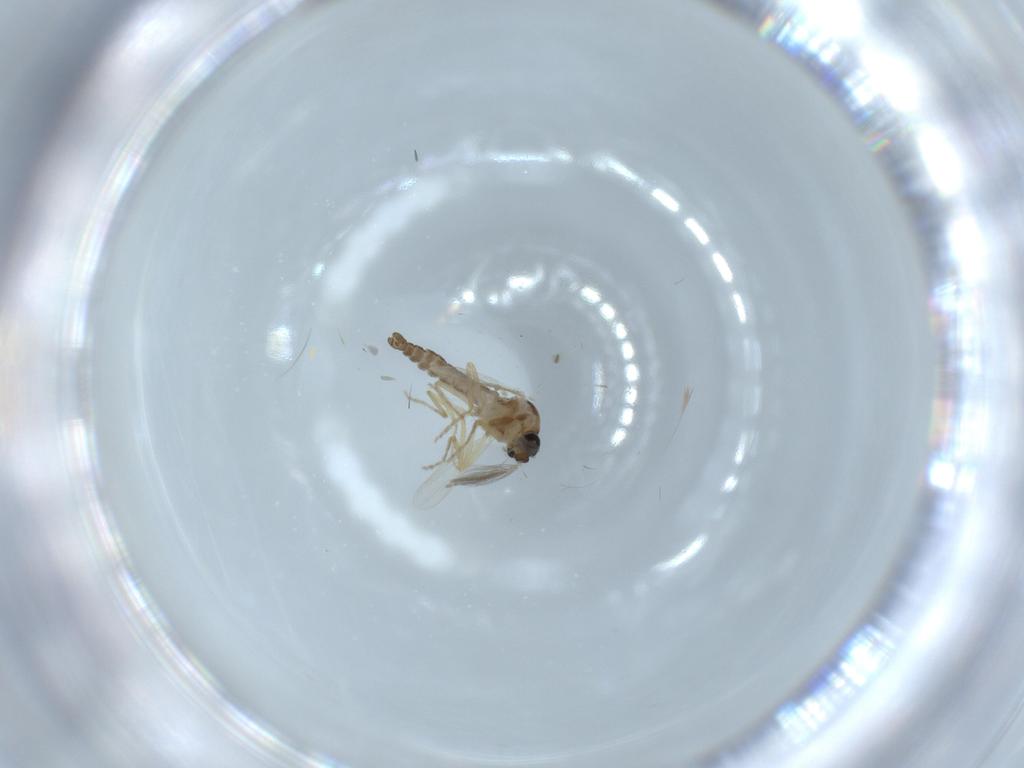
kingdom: Animalia
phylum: Arthropoda
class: Insecta
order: Diptera
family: Ceratopogonidae
